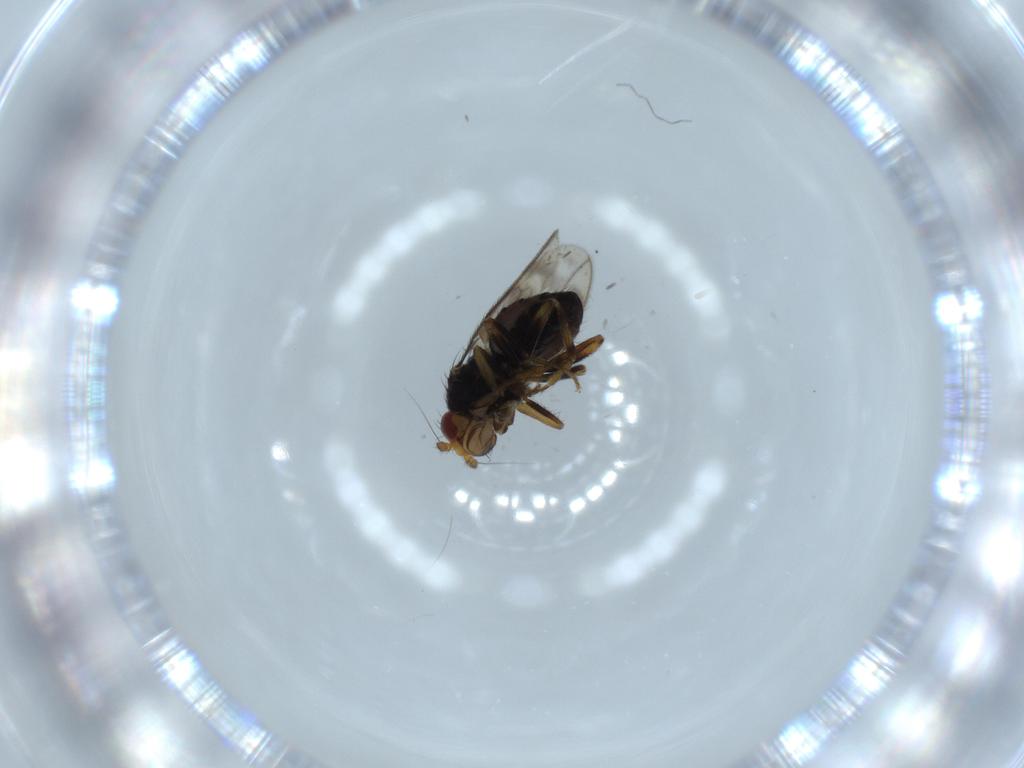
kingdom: Animalia
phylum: Arthropoda
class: Insecta
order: Diptera
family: Sphaeroceridae
